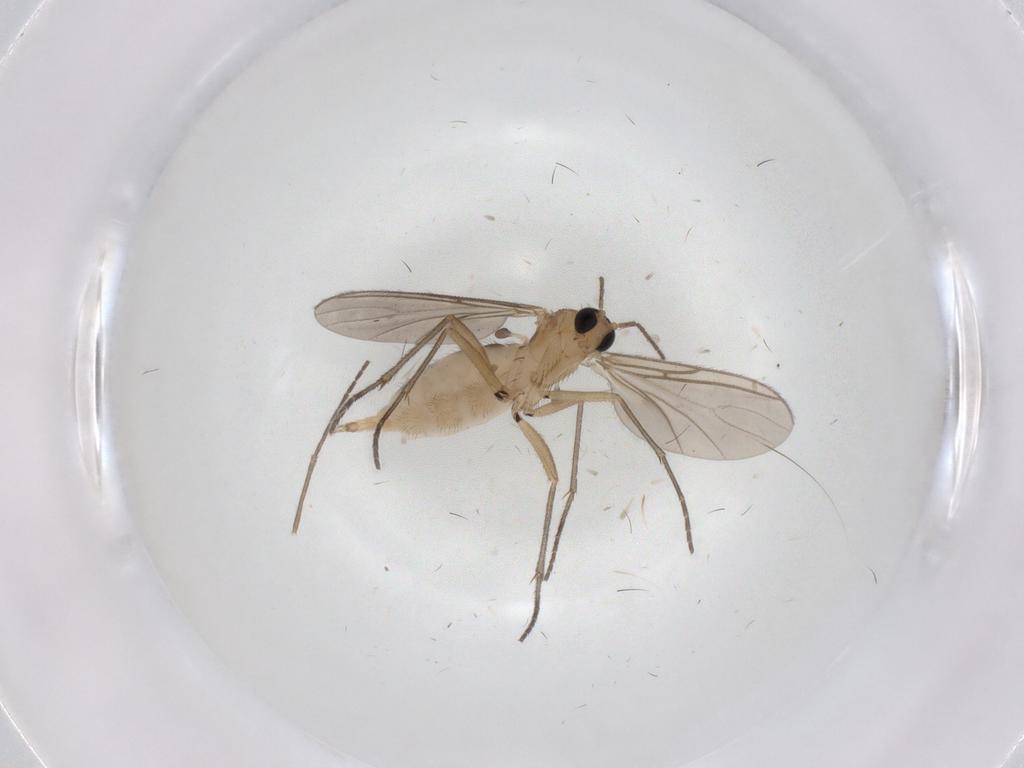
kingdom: Animalia
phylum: Arthropoda
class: Insecta
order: Diptera
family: Sciaridae
